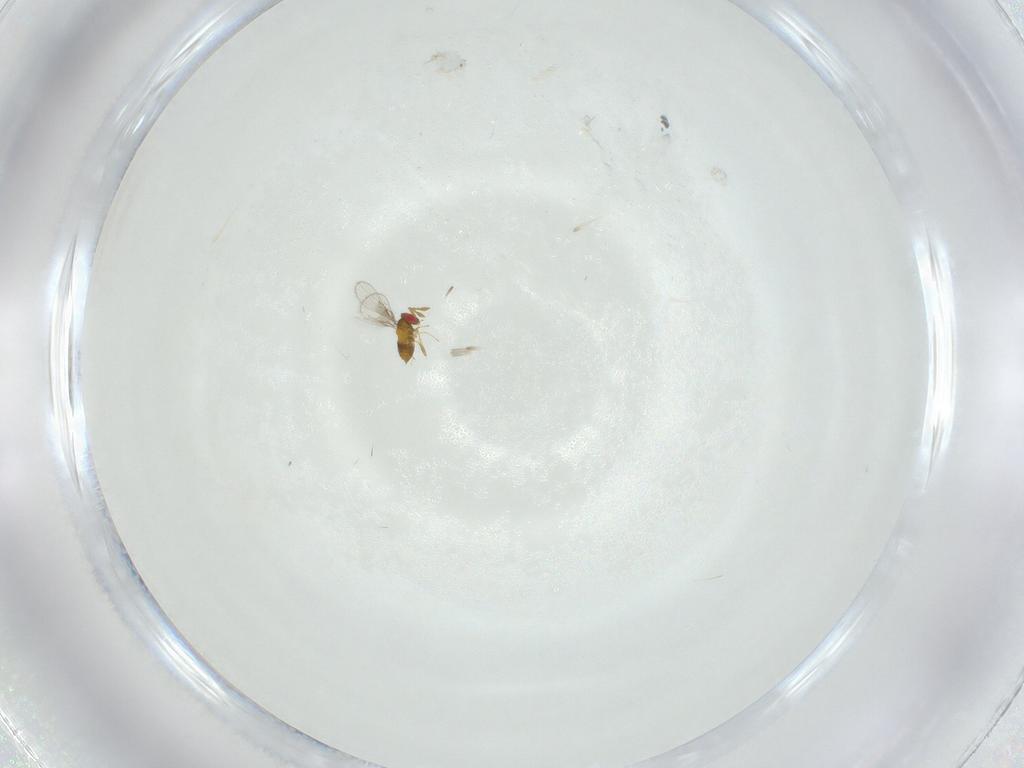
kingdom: Animalia
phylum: Arthropoda
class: Insecta
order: Hymenoptera
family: Trichogrammatidae
